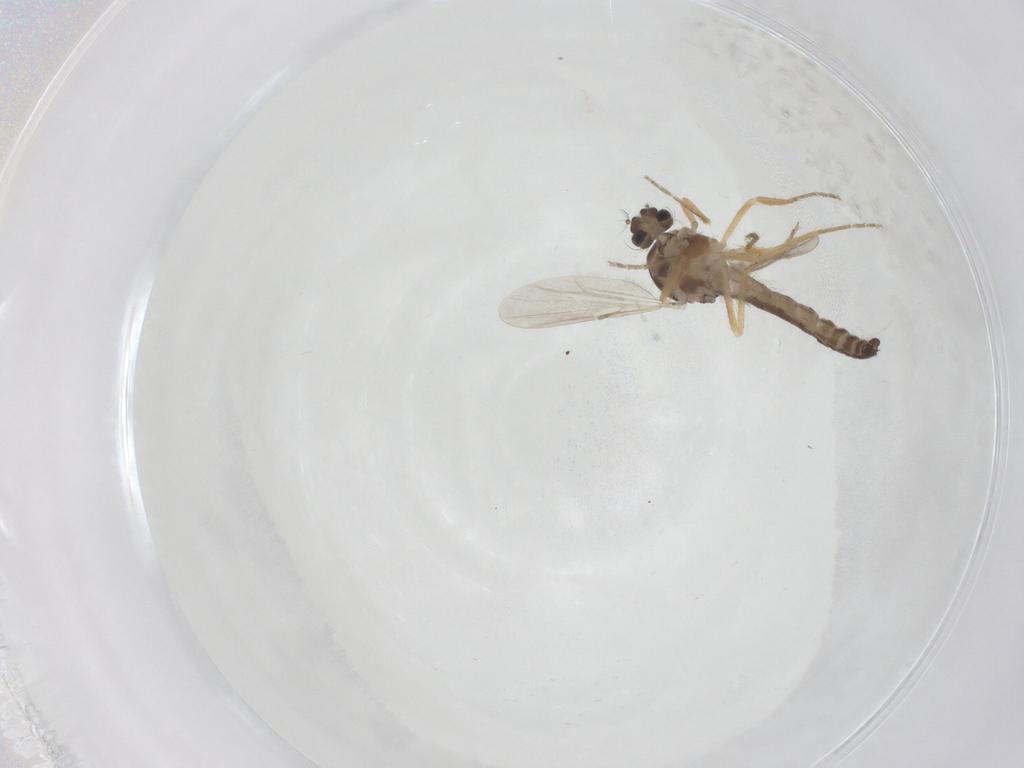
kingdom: Animalia
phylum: Arthropoda
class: Insecta
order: Diptera
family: Ceratopogonidae
